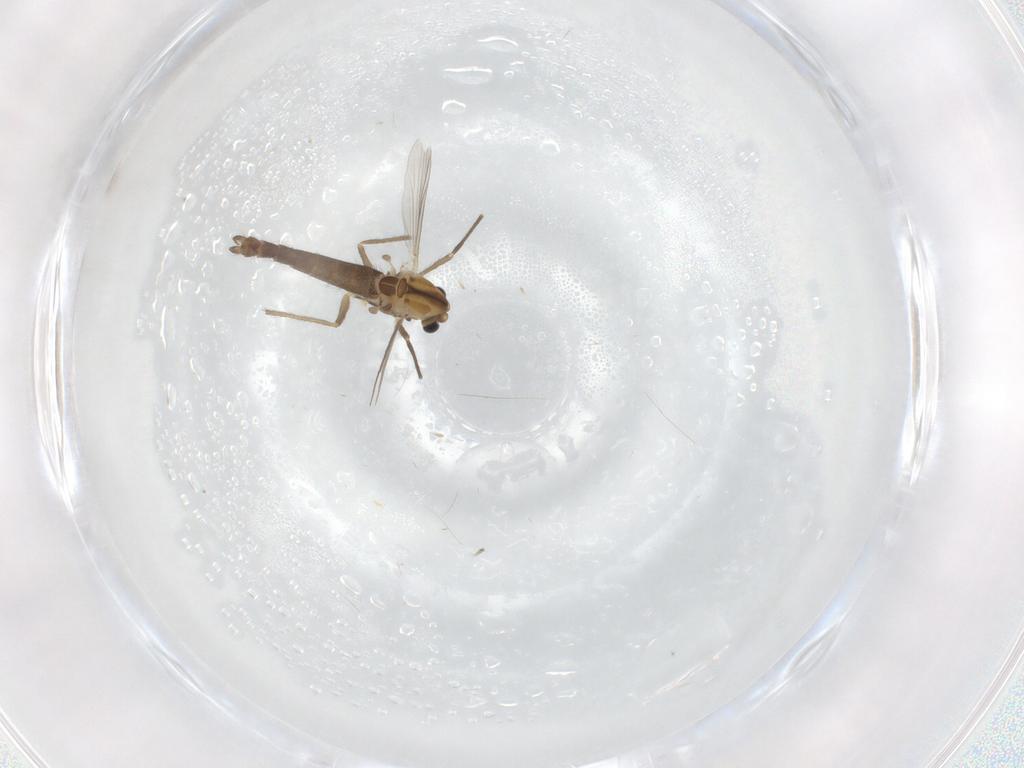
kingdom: Animalia
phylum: Arthropoda
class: Insecta
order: Diptera
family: Chironomidae
